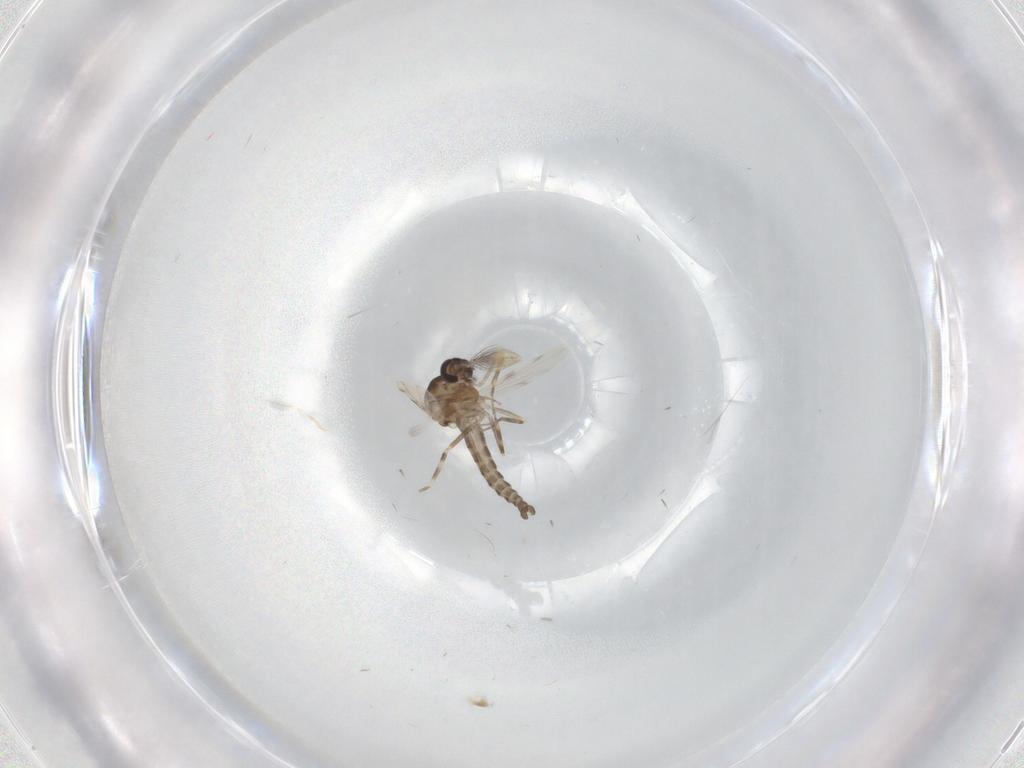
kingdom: Animalia
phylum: Arthropoda
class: Insecta
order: Diptera
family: Ceratopogonidae
